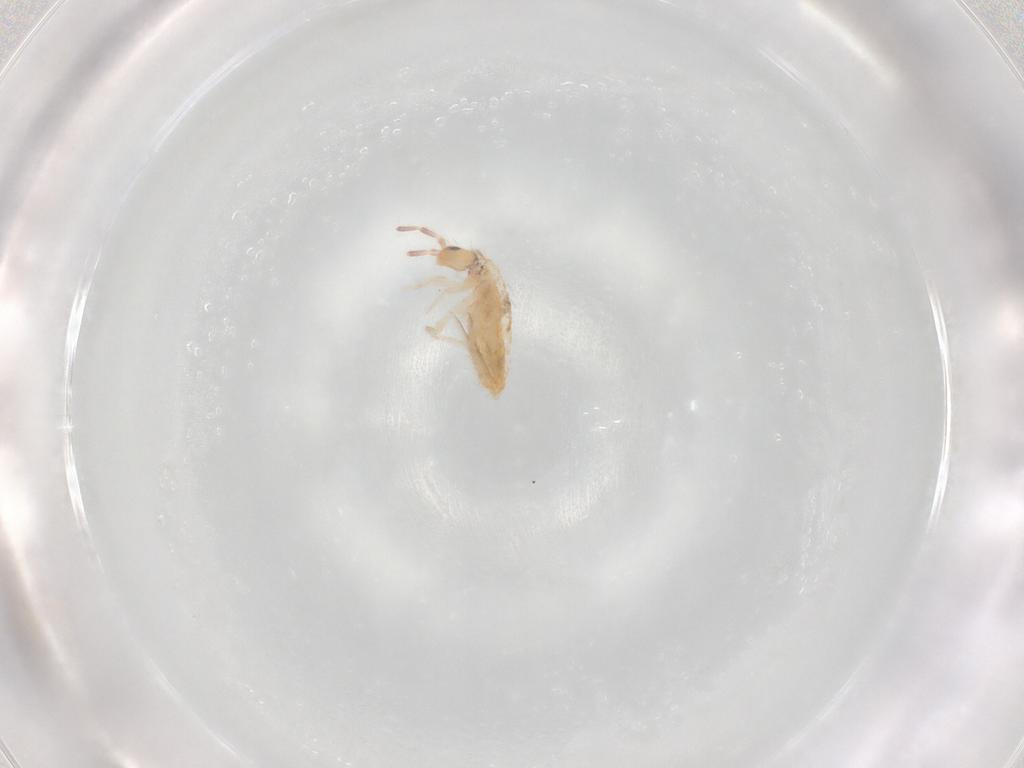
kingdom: Animalia
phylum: Arthropoda
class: Collembola
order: Entomobryomorpha
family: Entomobryidae
